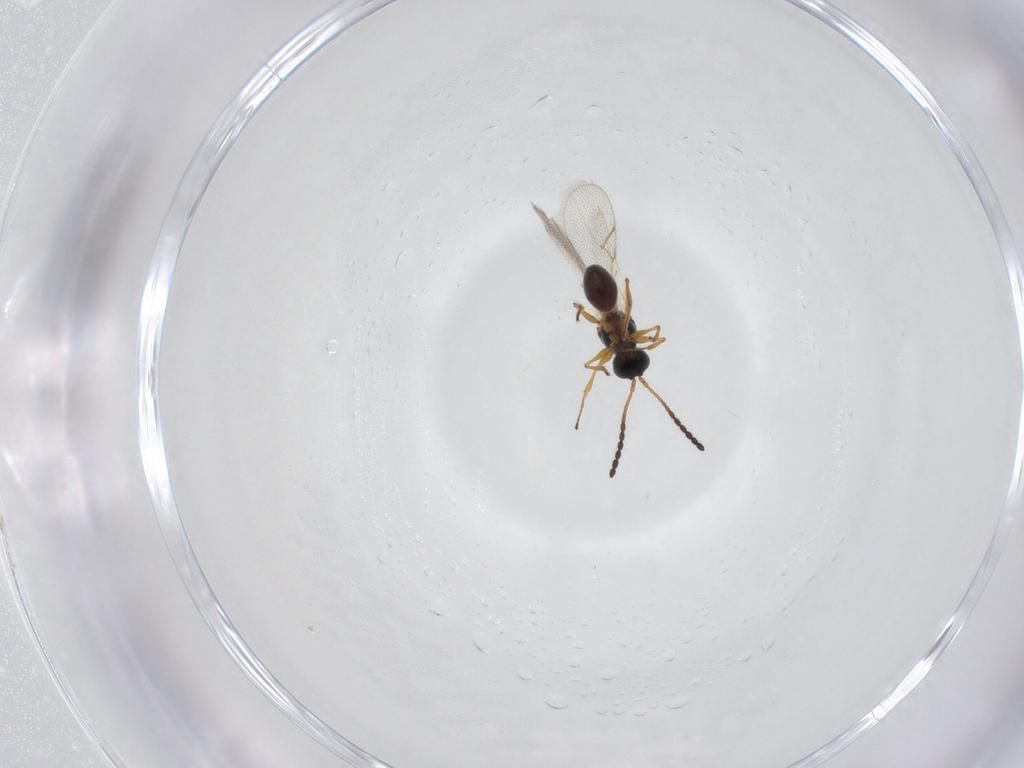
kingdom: Animalia
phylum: Arthropoda
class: Insecta
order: Hymenoptera
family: Figitidae
